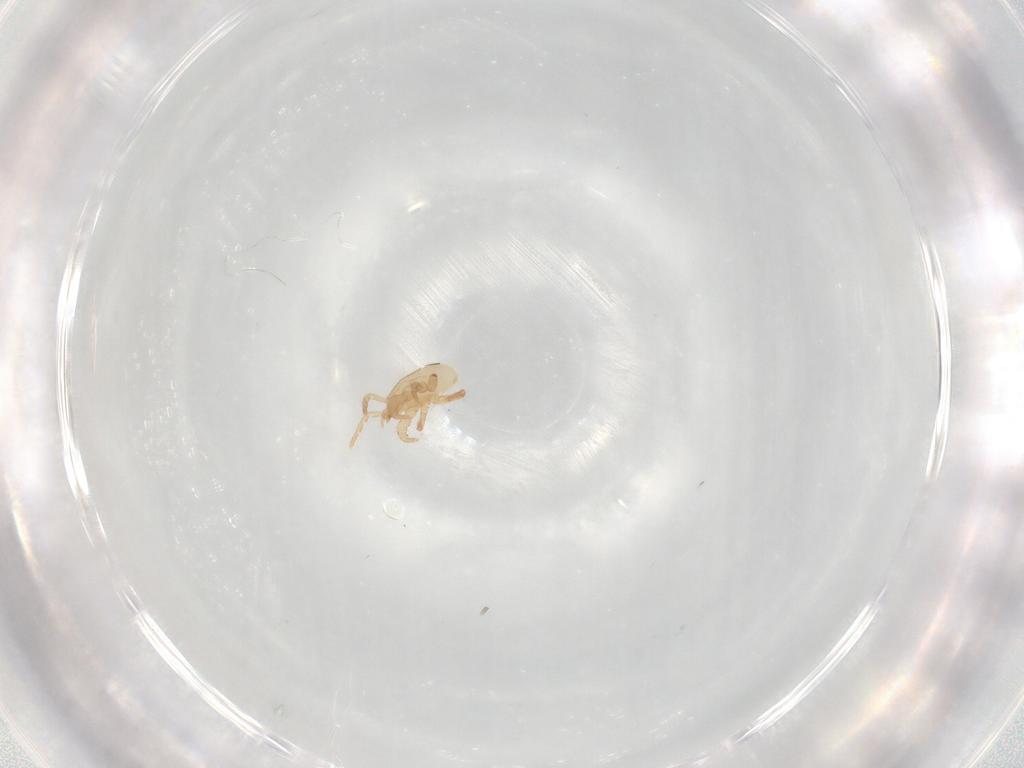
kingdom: Animalia
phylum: Arthropoda
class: Arachnida
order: Mesostigmata
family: Parasitidae
